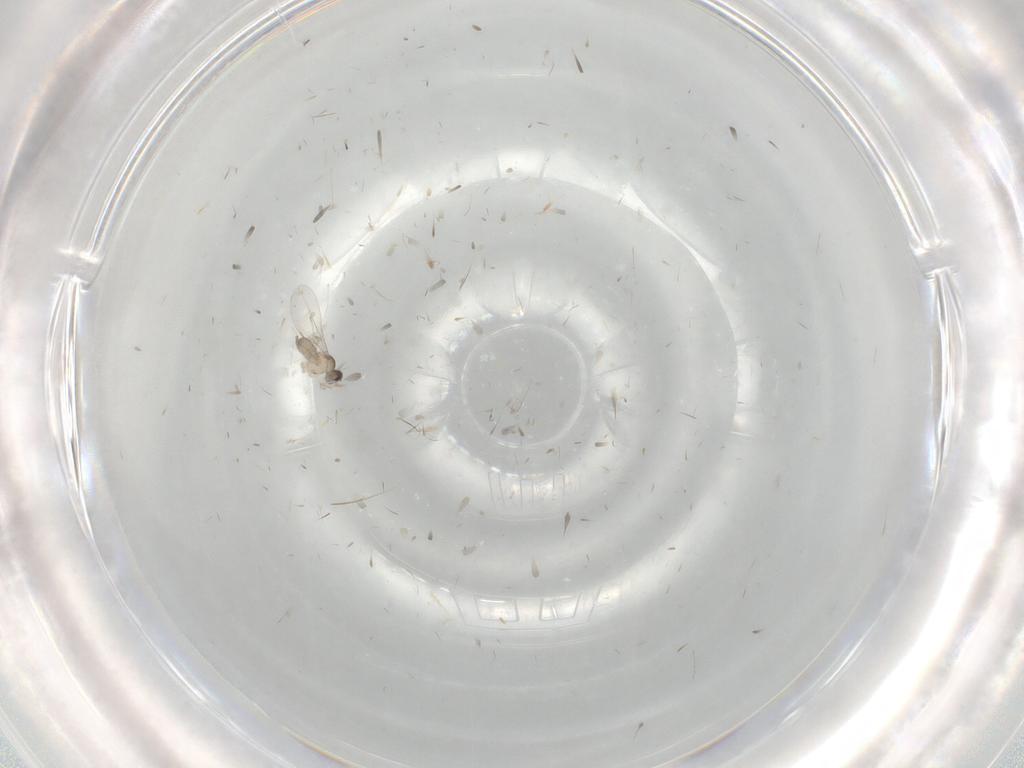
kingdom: Animalia
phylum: Arthropoda
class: Insecta
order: Diptera
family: Cecidomyiidae
